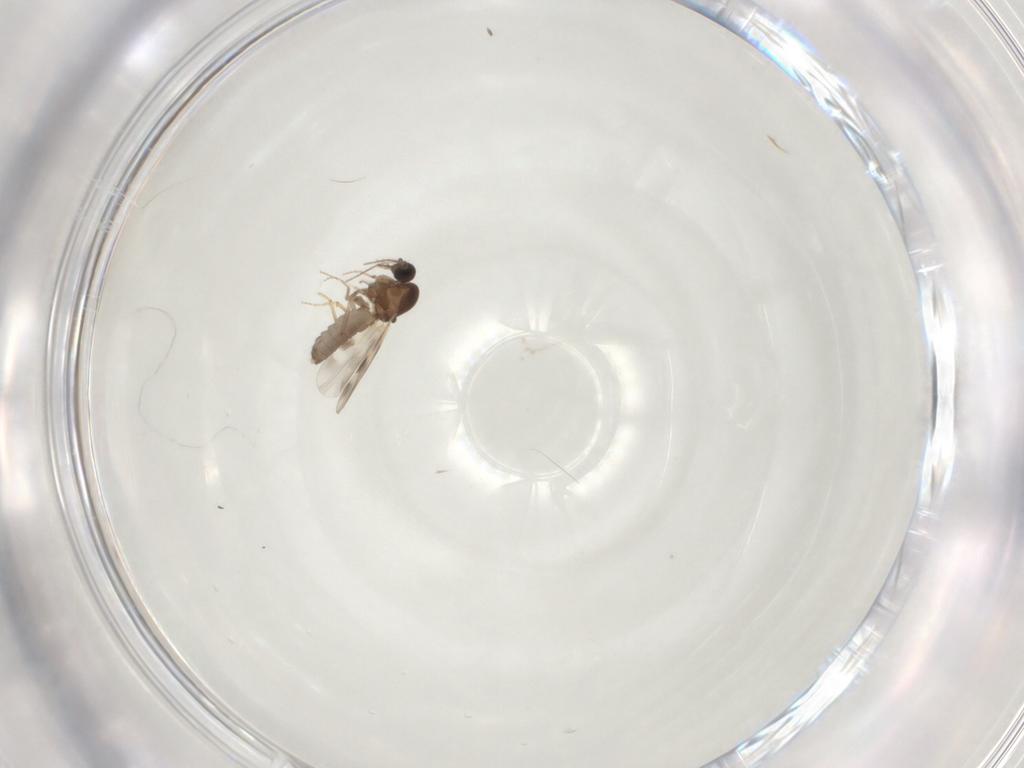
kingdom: Animalia
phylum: Arthropoda
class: Insecta
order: Diptera
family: Ceratopogonidae
